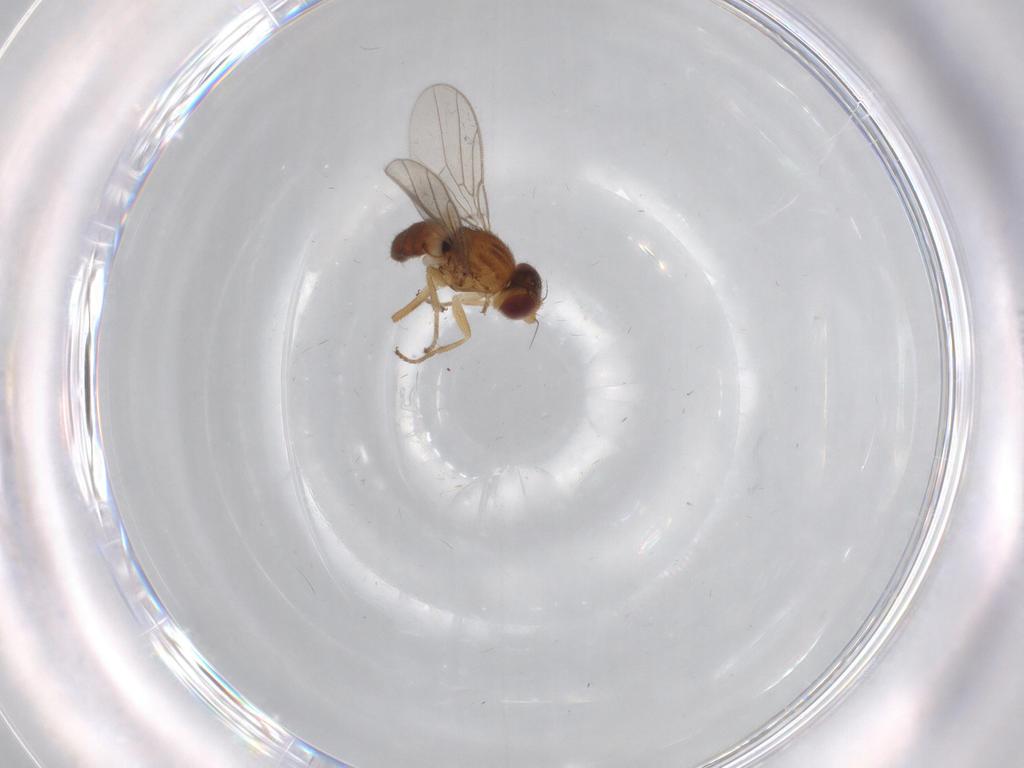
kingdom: Animalia
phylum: Arthropoda
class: Insecta
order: Diptera
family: Chloropidae
